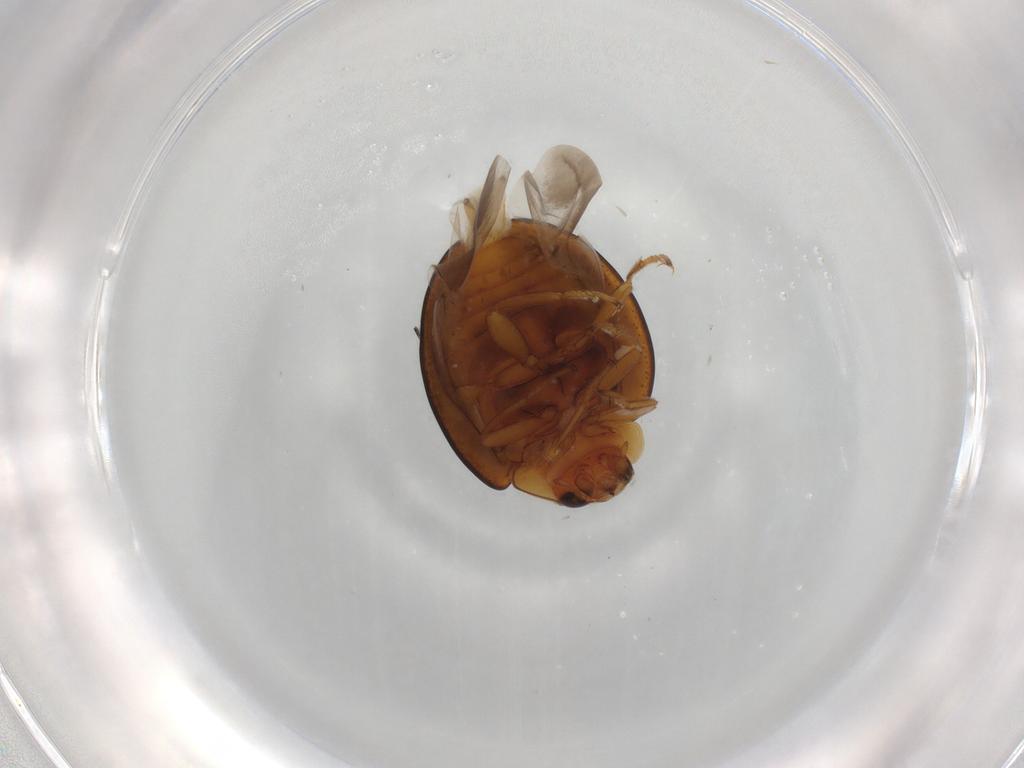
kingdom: Animalia
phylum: Arthropoda
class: Insecta
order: Coleoptera
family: Coccinellidae
